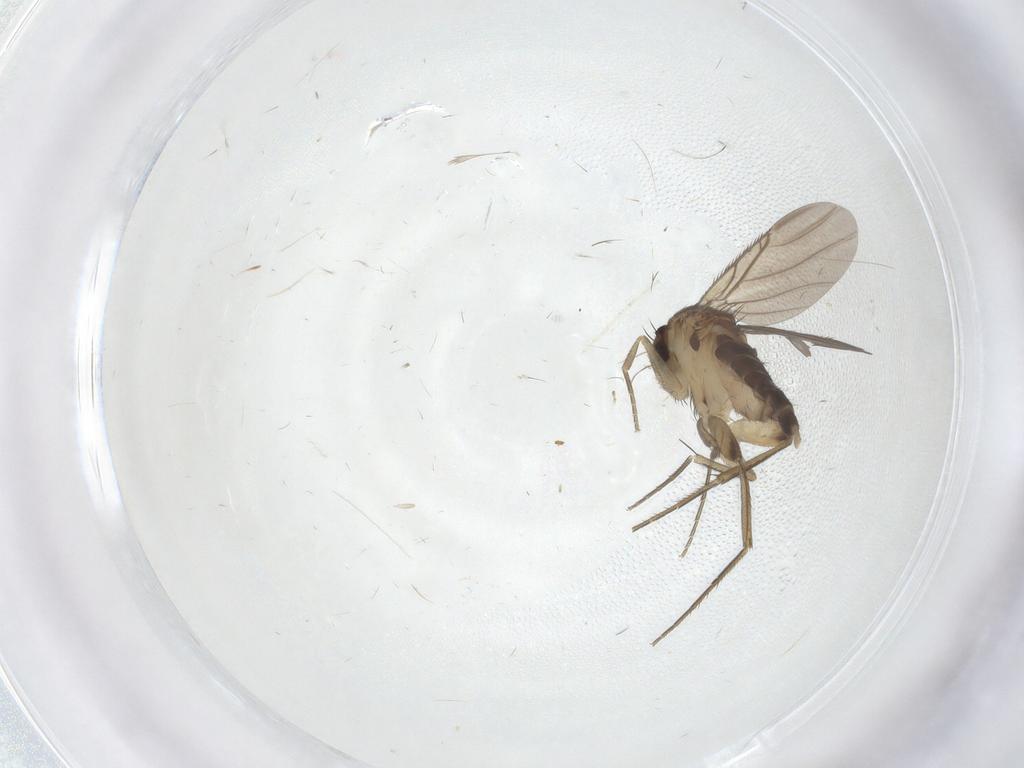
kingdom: Animalia
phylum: Arthropoda
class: Insecta
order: Diptera
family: Phoridae
